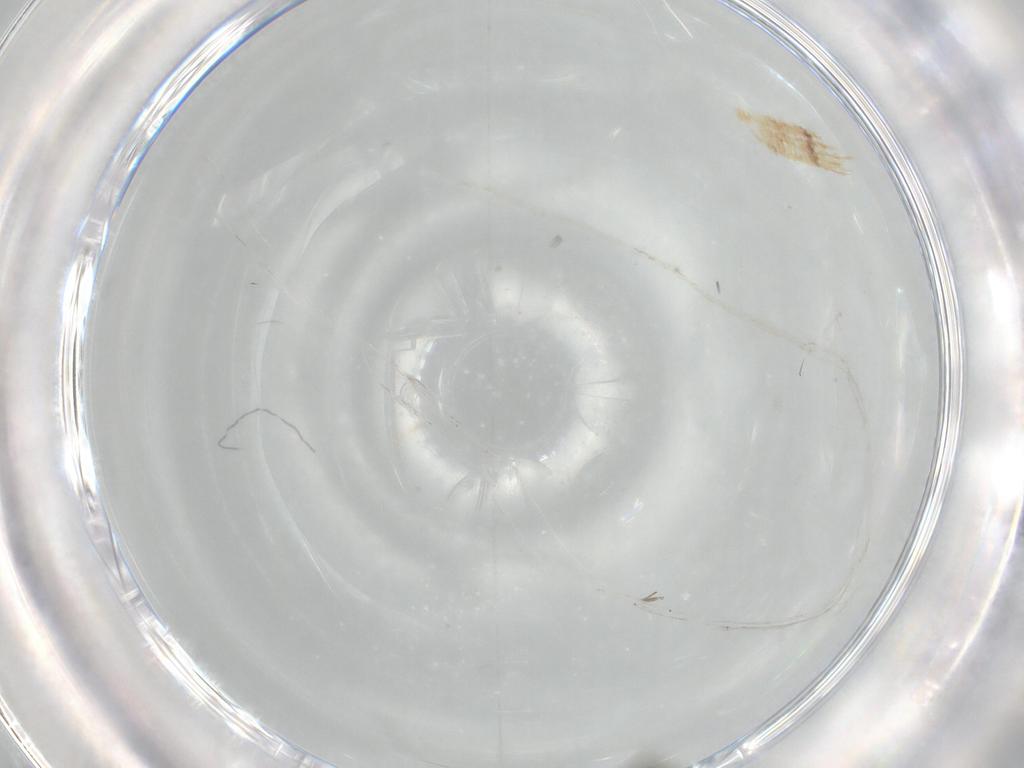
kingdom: Animalia
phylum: Arthropoda
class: Insecta
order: Diptera
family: Chironomidae
